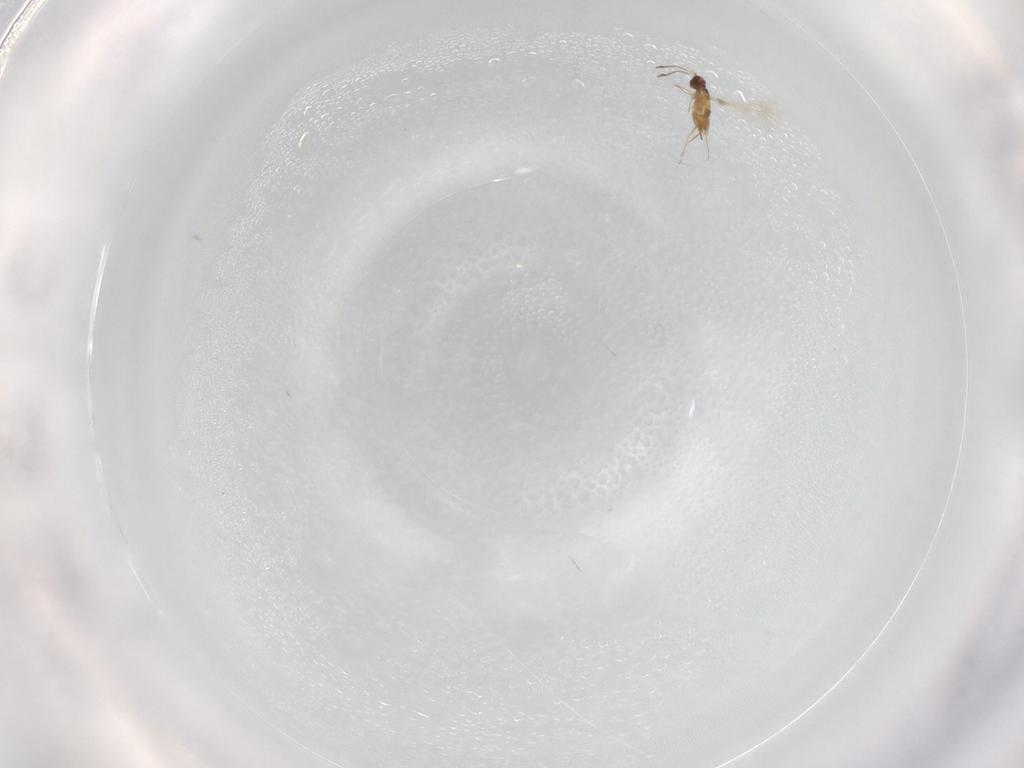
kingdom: Animalia
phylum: Arthropoda
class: Insecta
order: Hymenoptera
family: Scelionidae
